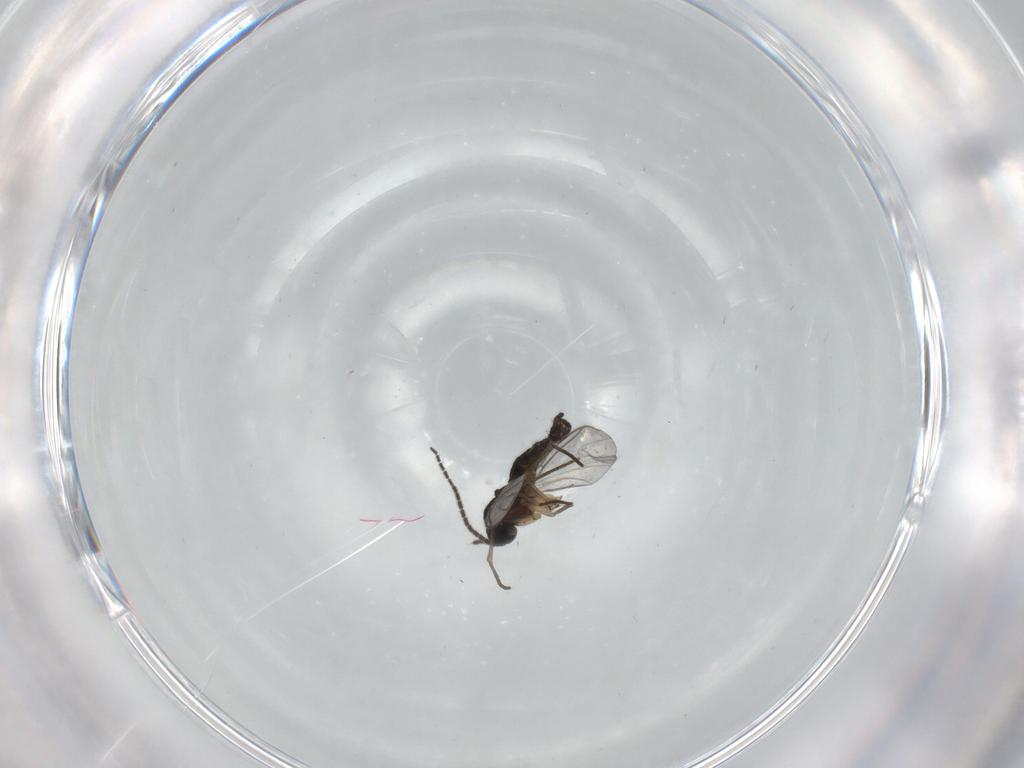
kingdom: Animalia
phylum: Arthropoda
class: Insecta
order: Diptera
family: Sciaridae
